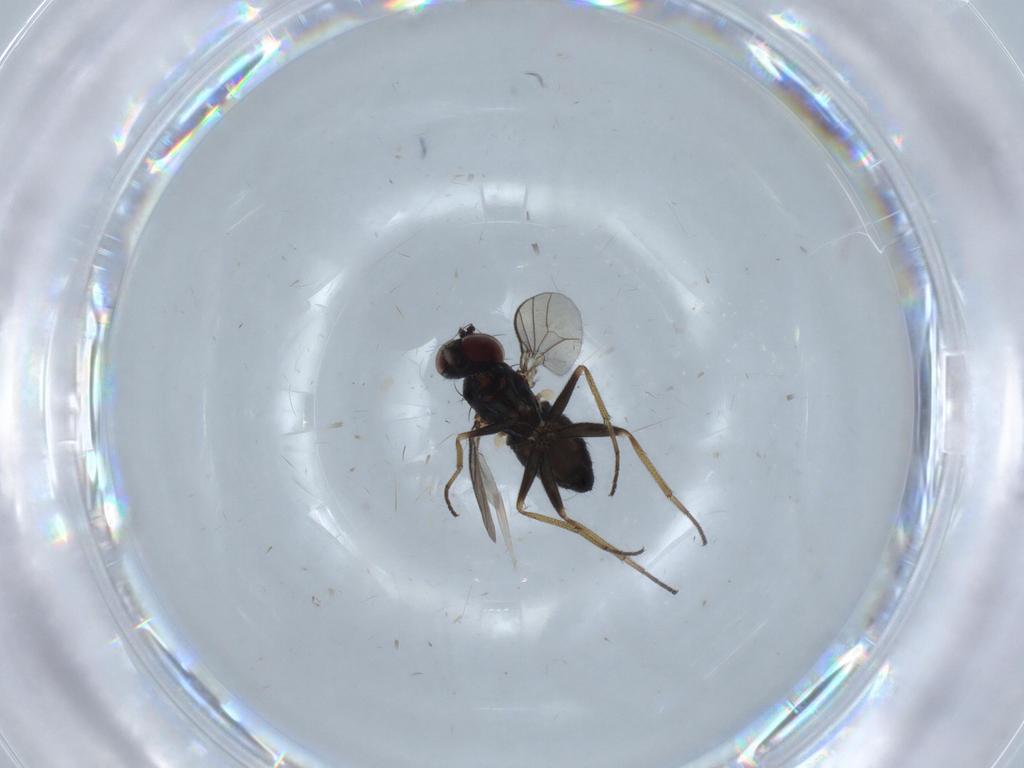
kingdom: Animalia
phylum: Arthropoda
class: Insecta
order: Diptera
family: Dolichopodidae
